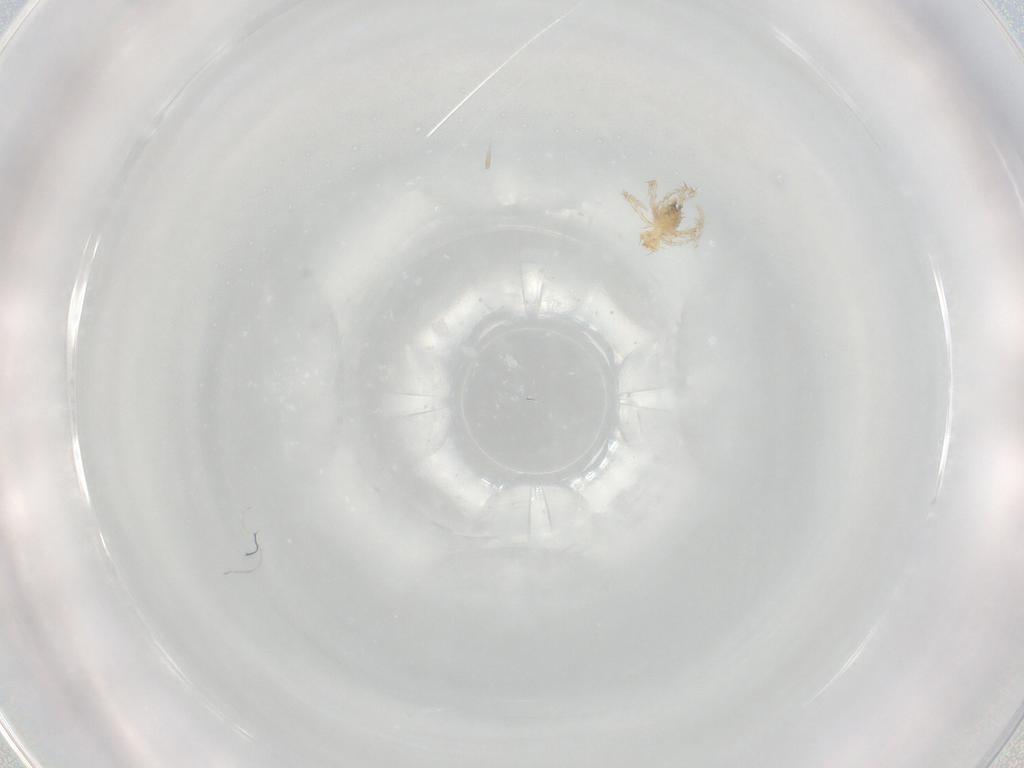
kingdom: Animalia
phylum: Arthropoda
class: Arachnida
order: Trombidiformes
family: Erythraeidae
